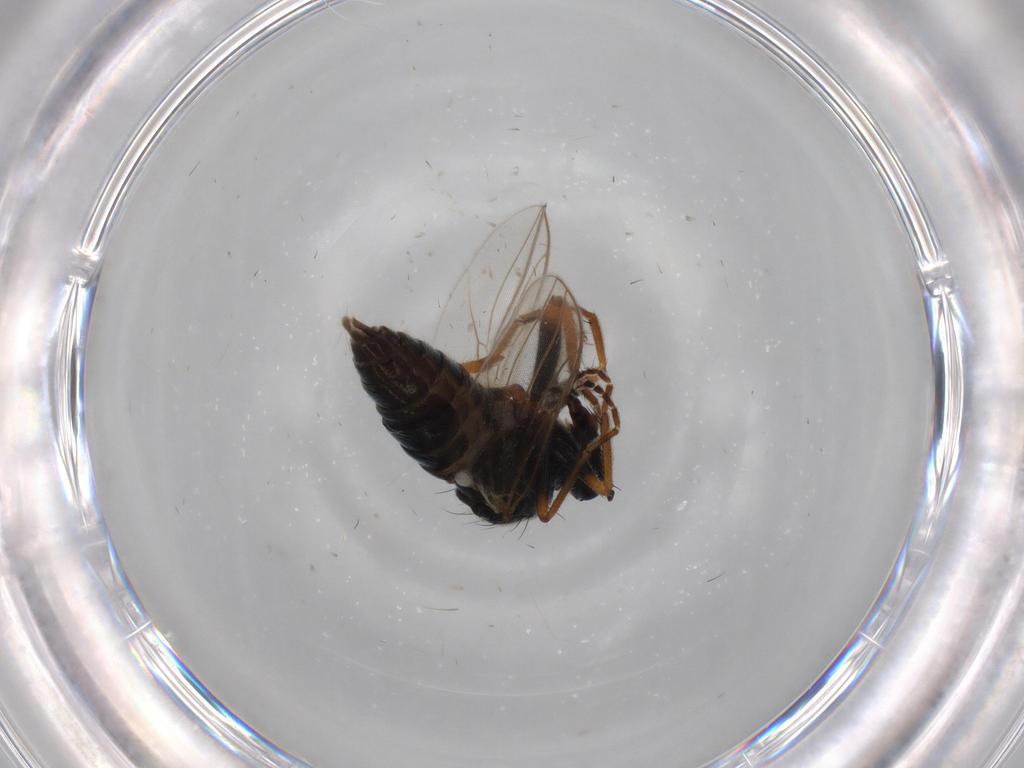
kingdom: Animalia
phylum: Arthropoda
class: Insecta
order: Diptera
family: Hybotidae
